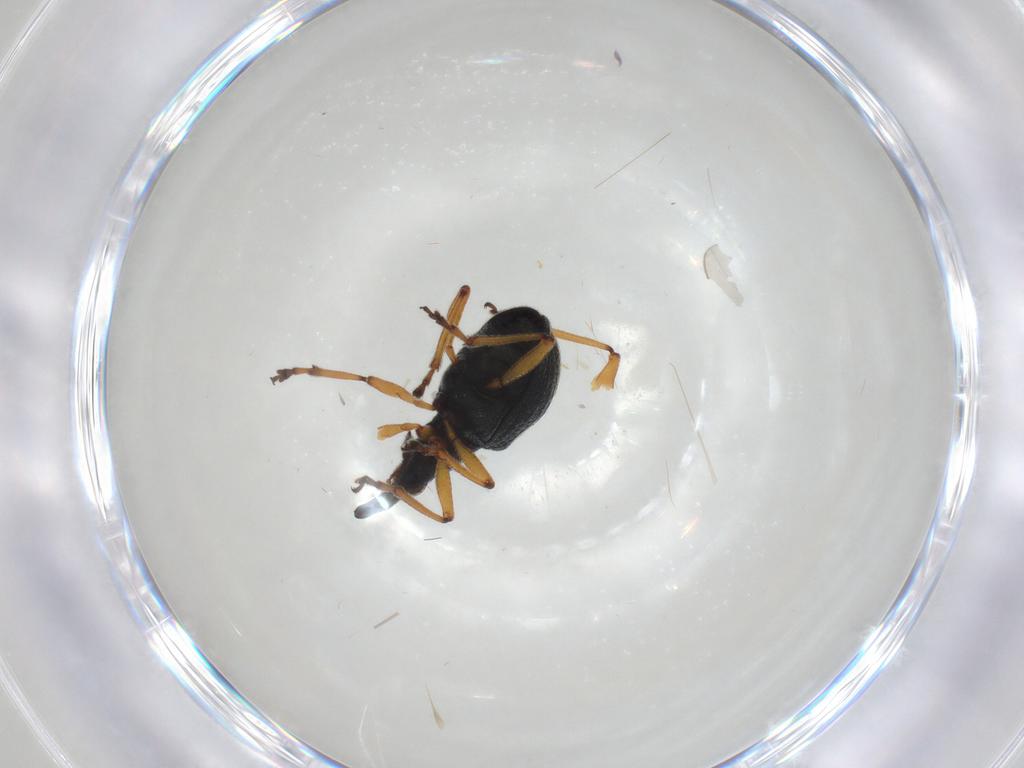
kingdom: Animalia
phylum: Arthropoda
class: Insecta
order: Coleoptera
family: Brentidae
